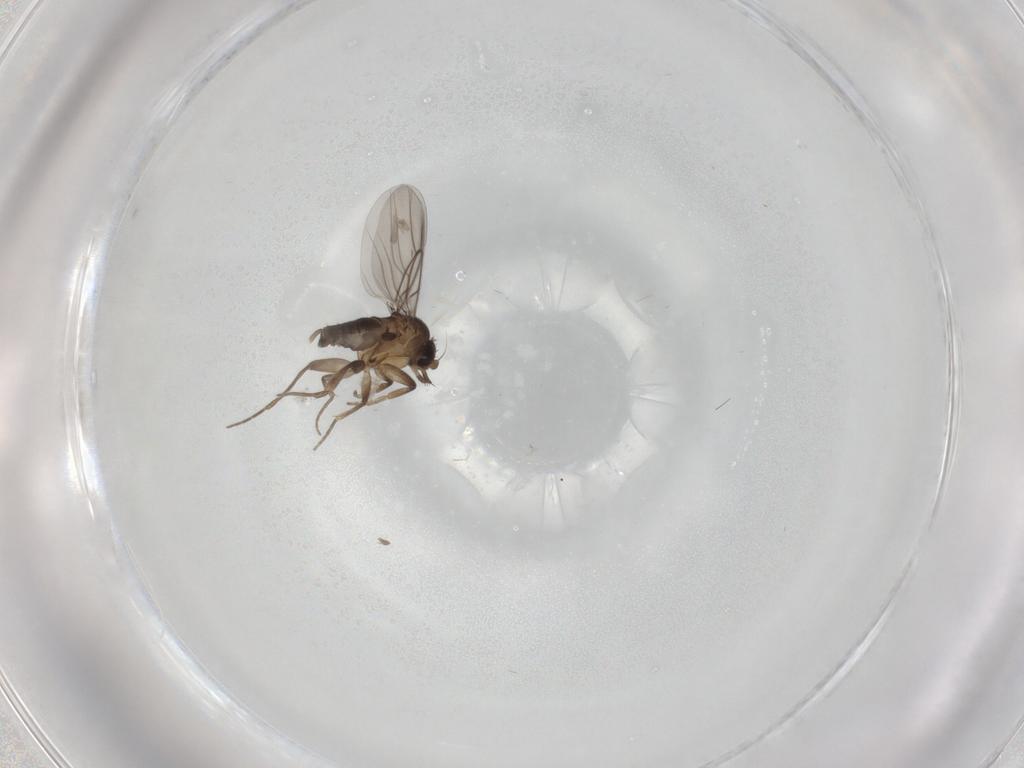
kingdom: Animalia
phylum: Arthropoda
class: Insecta
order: Diptera
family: Phoridae
